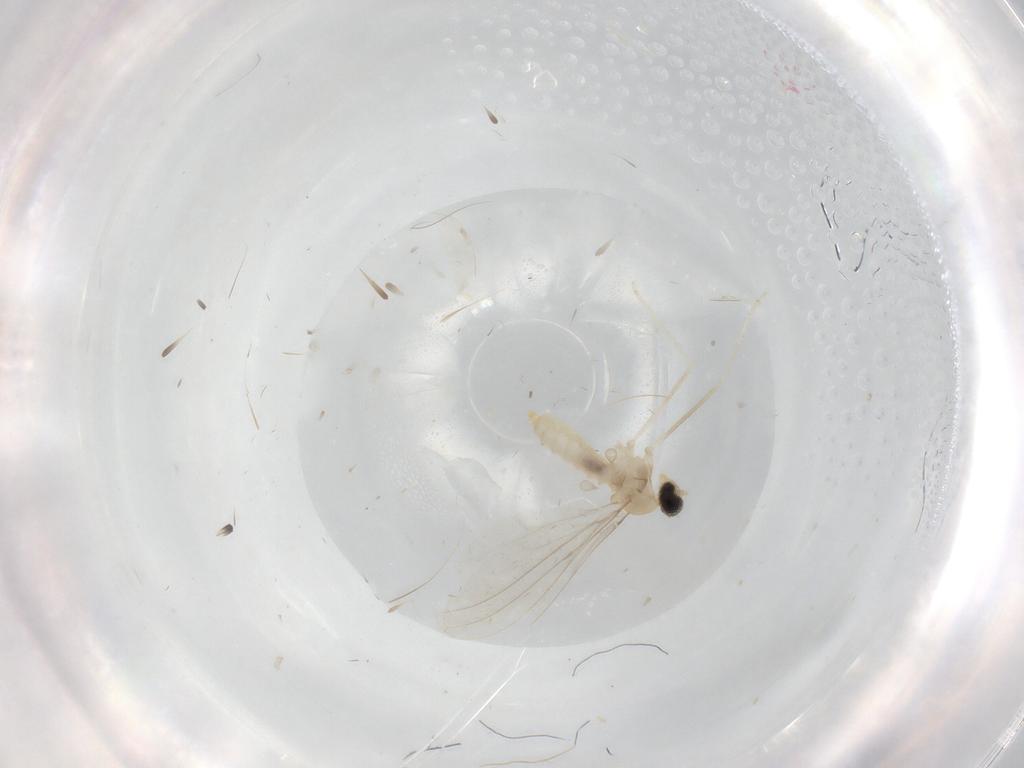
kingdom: Animalia
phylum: Arthropoda
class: Insecta
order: Diptera
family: Cecidomyiidae
